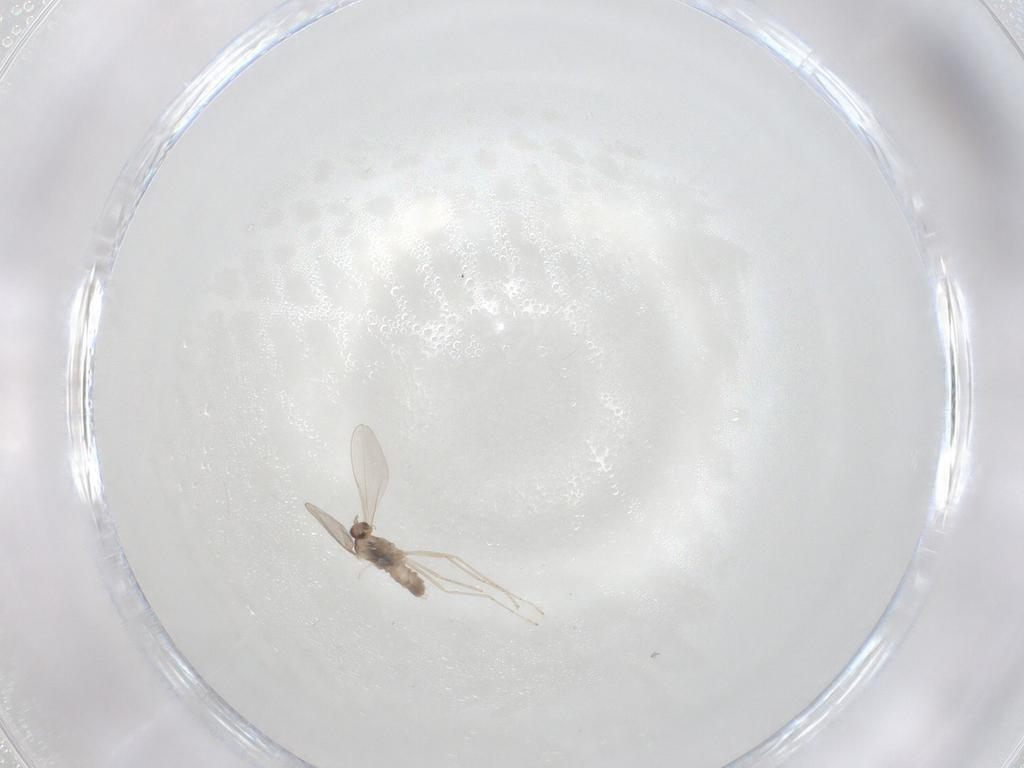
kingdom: Animalia
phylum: Arthropoda
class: Insecta
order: Diptera
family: Cecidomyiidae
